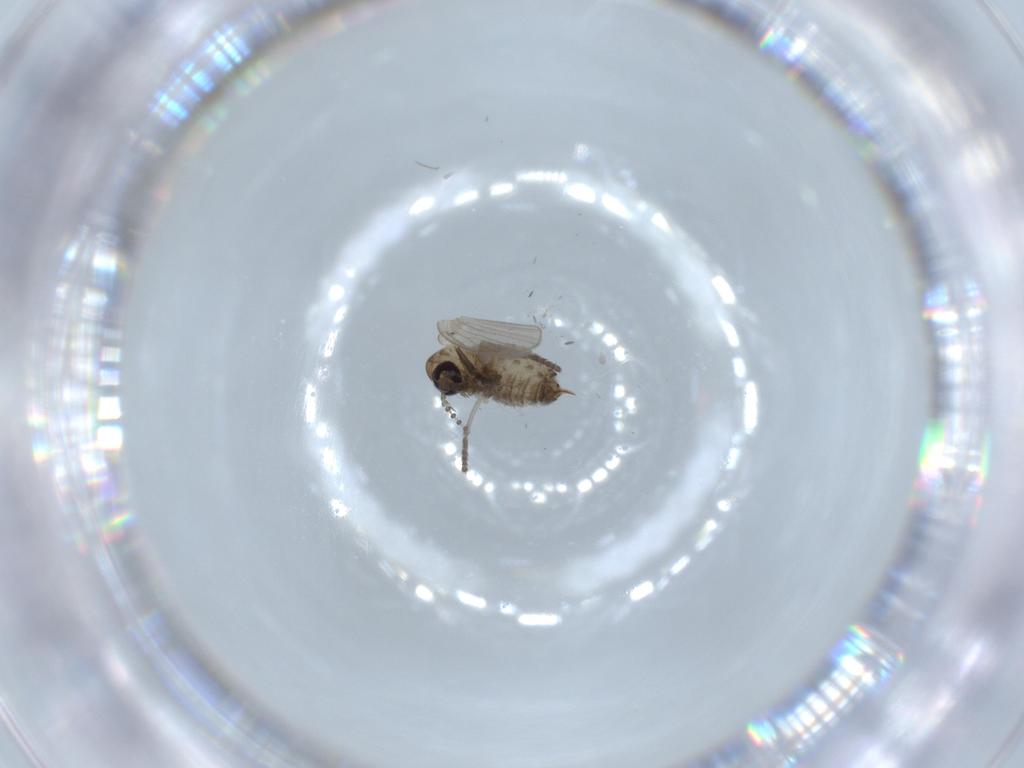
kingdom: Animalia
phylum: Arthropoda
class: Insecta
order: Diptera
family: Psychodidae
